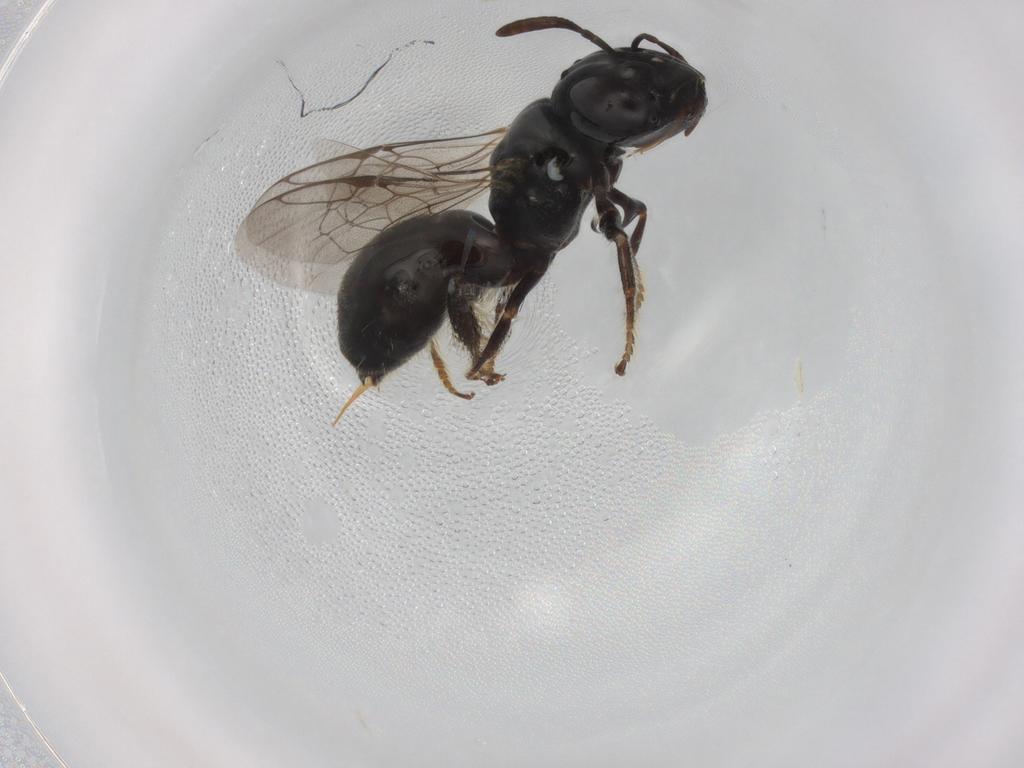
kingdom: Animalia
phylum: Arthropoda
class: Insecta
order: Hymenoptera
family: Apidae
